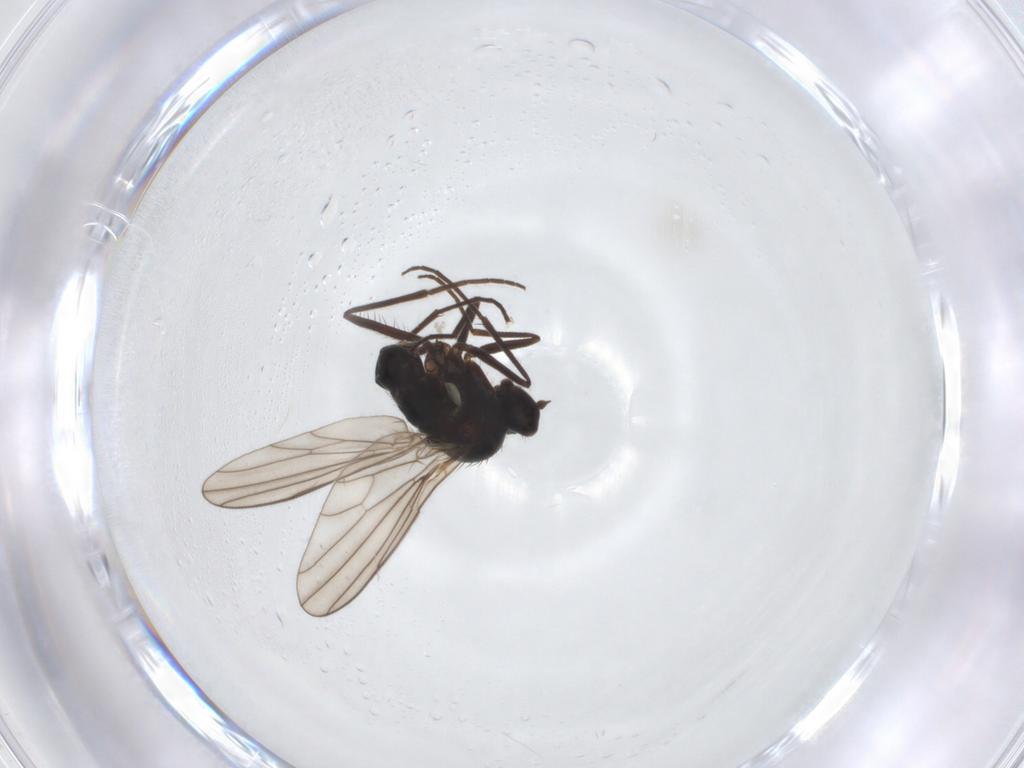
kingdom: Animalia
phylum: Arthropoda
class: Insecta
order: Diptera
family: Dolichopodidae
